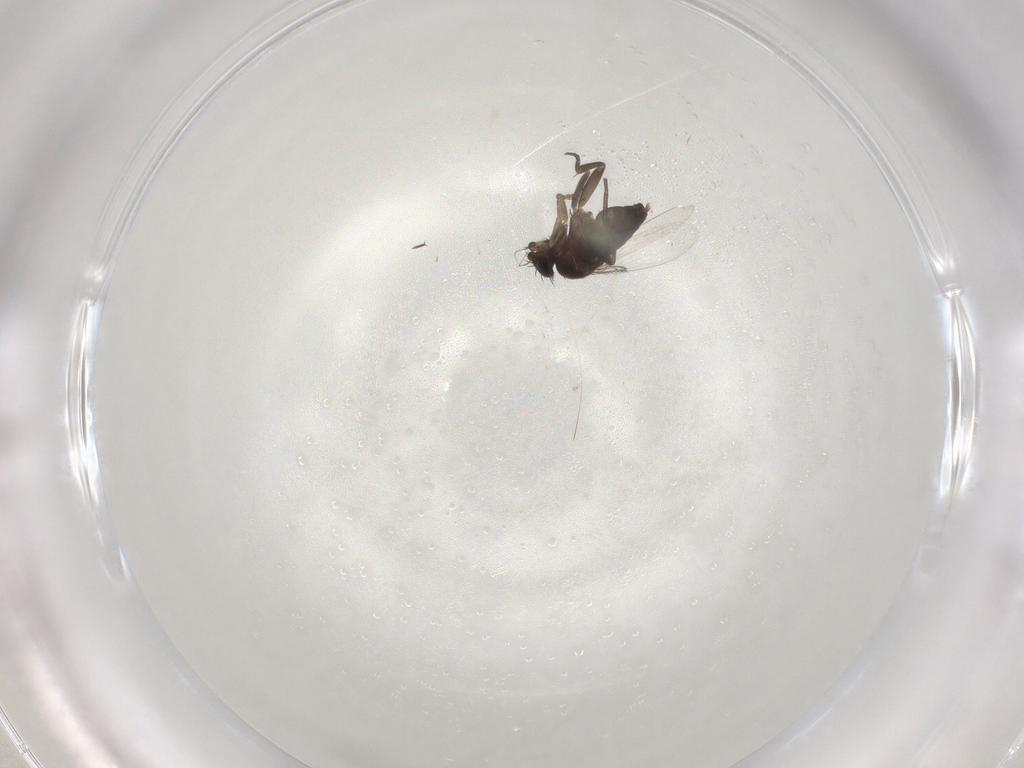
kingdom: Animalia
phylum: Arthropoda
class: Insecta
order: Diptera
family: Phoridae
